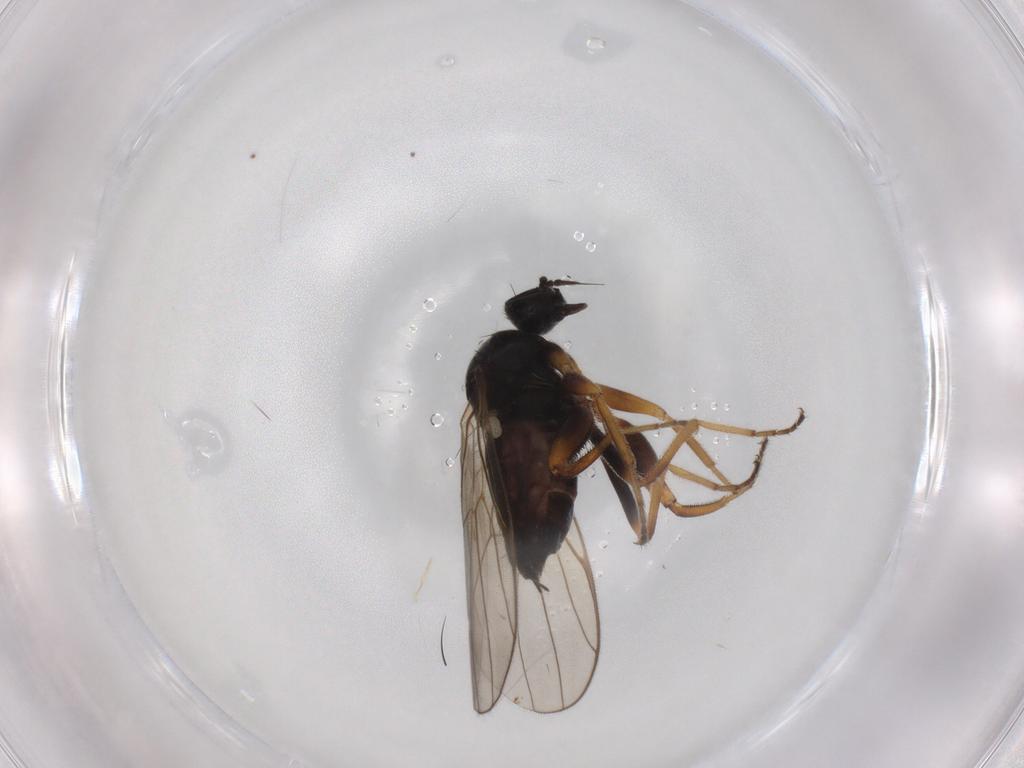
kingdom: Animalia
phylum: Arthropoda
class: Insecta
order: Diptera
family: Hybotidae
